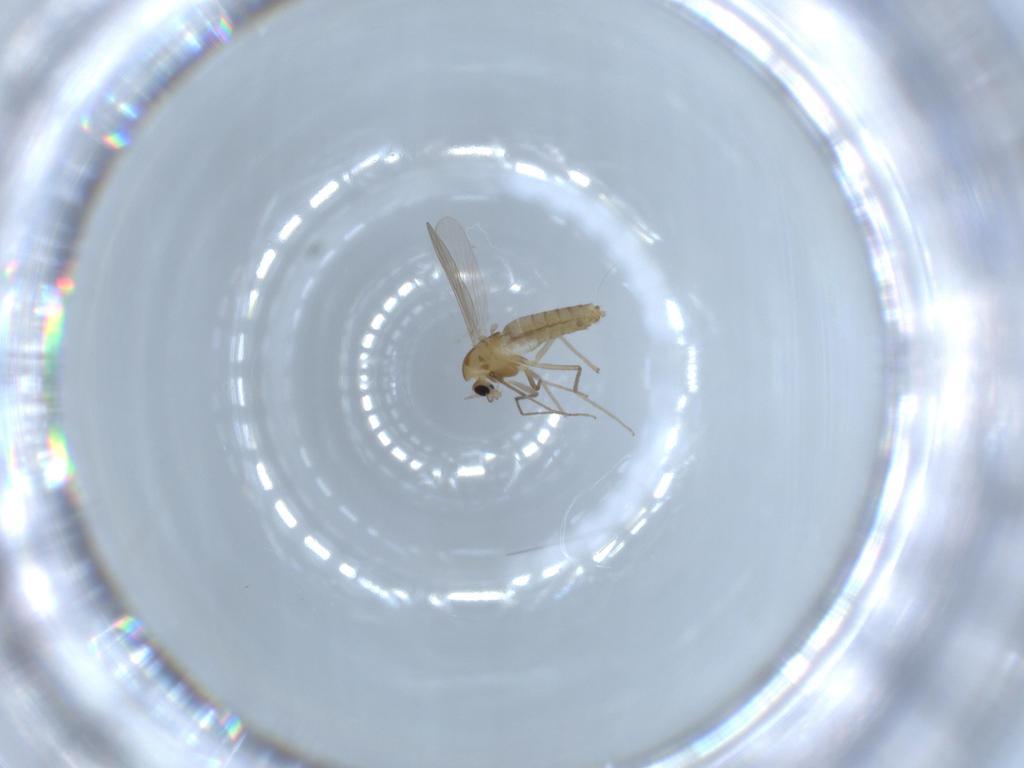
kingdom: Animalia
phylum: Arthropoda
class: Insecta
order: Diptera
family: Chironomidae
